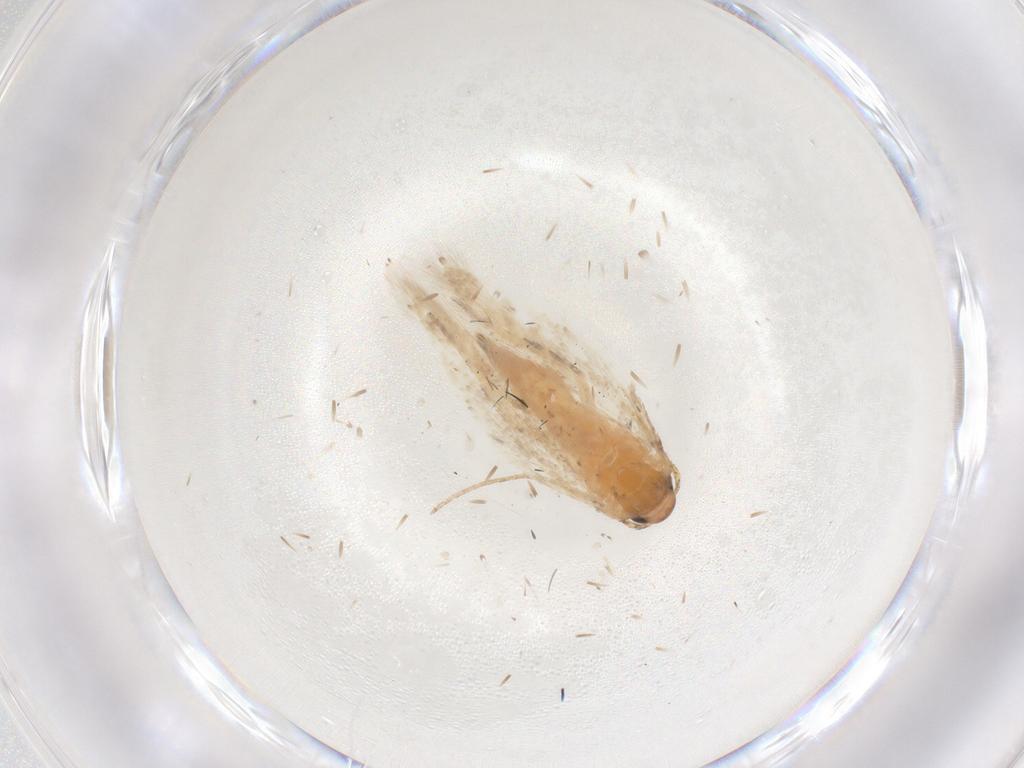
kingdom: Animalia
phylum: Arthropoda
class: Insecta
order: Lepidoptera
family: Gelechiidae
